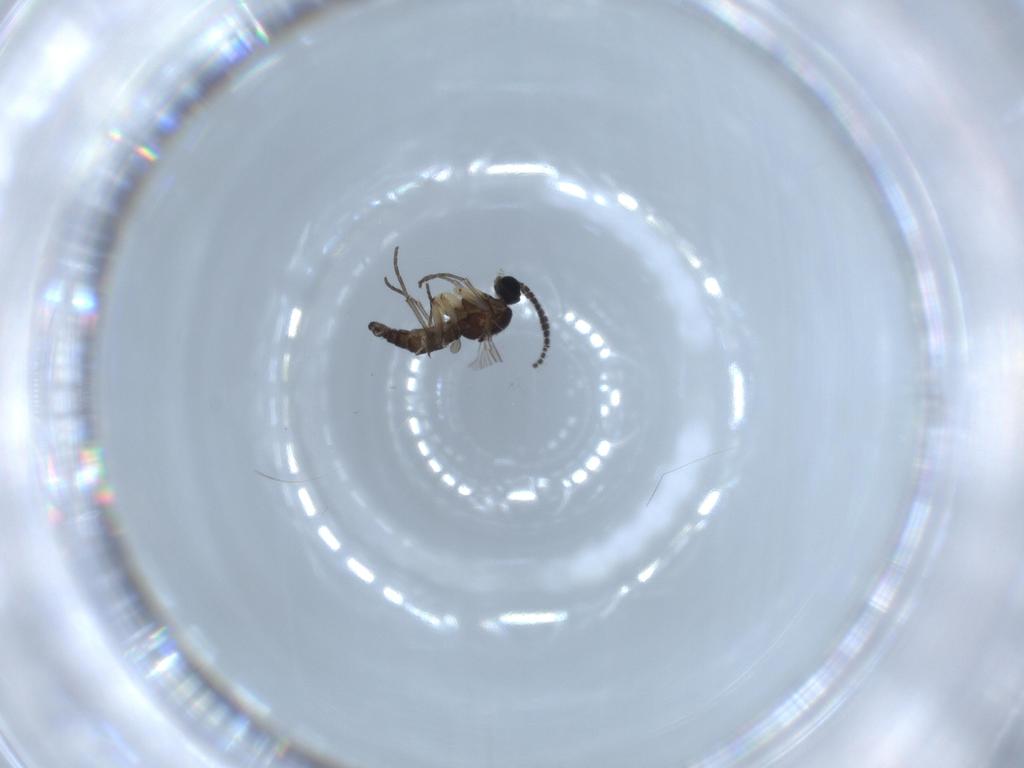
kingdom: Animalia
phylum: Arthropoda
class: Insecta
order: Diptera
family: Sciaridae
